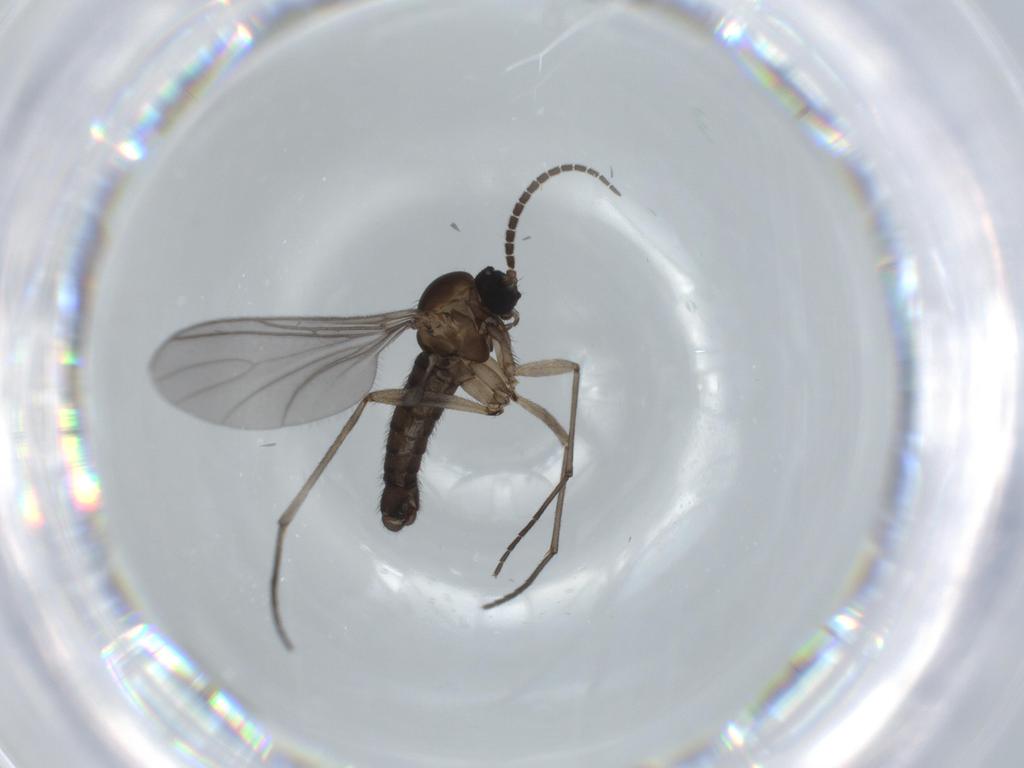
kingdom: Animalia
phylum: Arthropoda
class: Insecta
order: Diptera
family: Sciaridae
